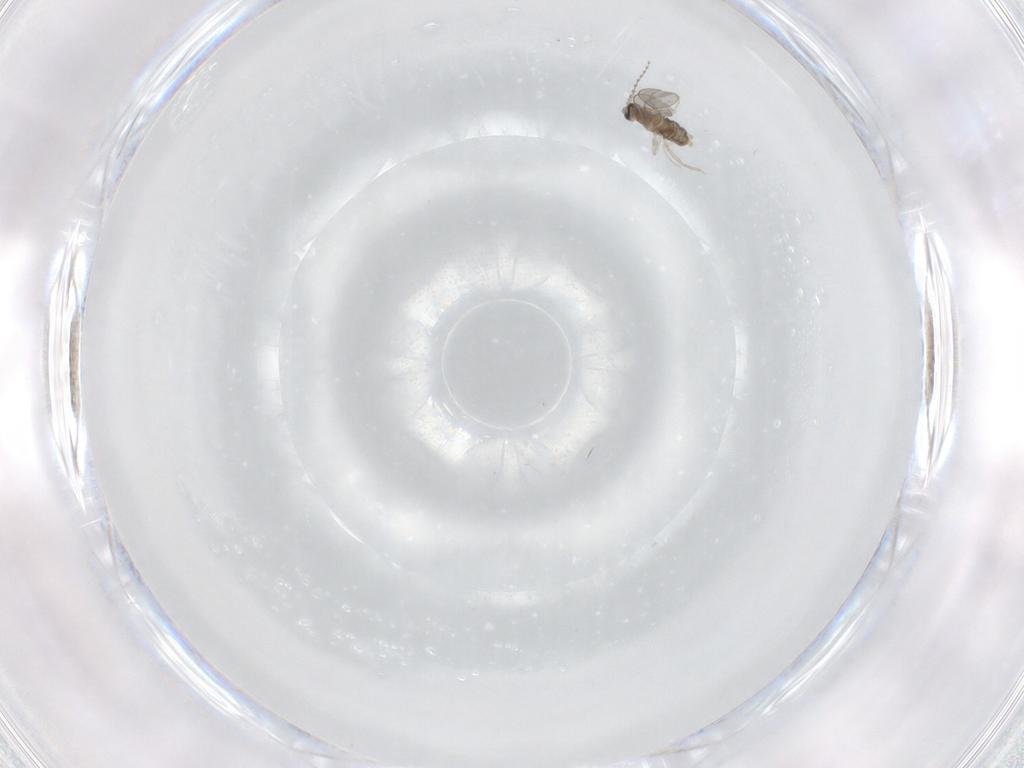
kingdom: Animalia
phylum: Arthropoda
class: Insecta
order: Diptera
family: Cecidomyiidae
